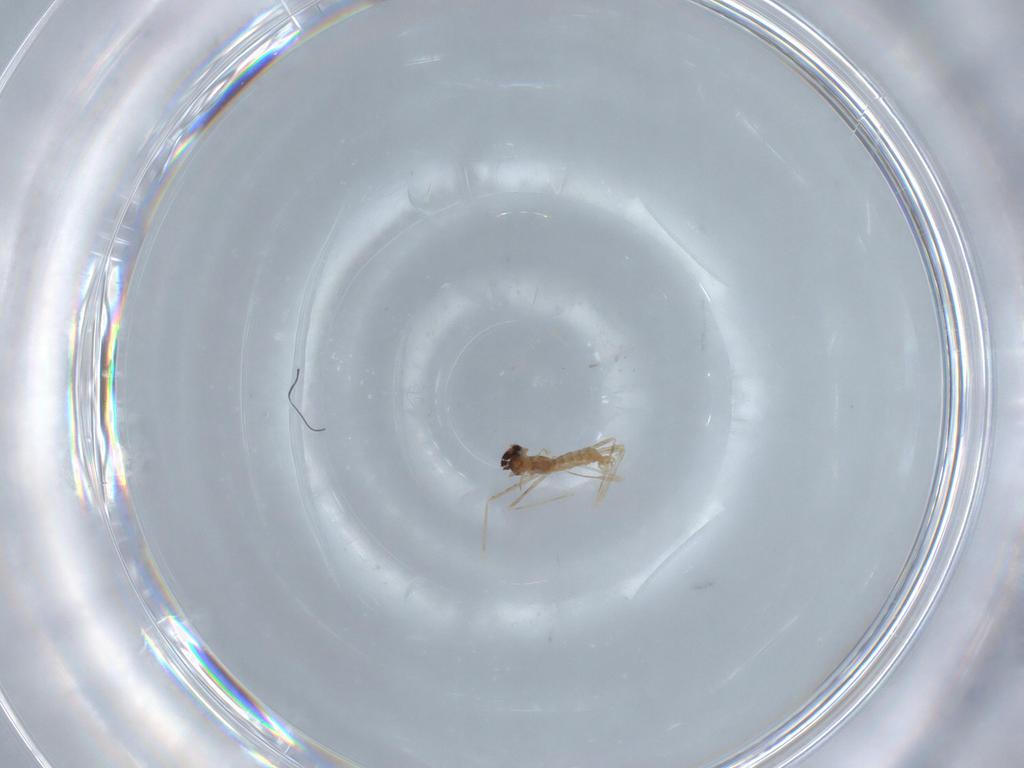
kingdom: Animalia
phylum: Arthropoda
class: Insecta
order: Diptera
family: Cecidomyiidae
